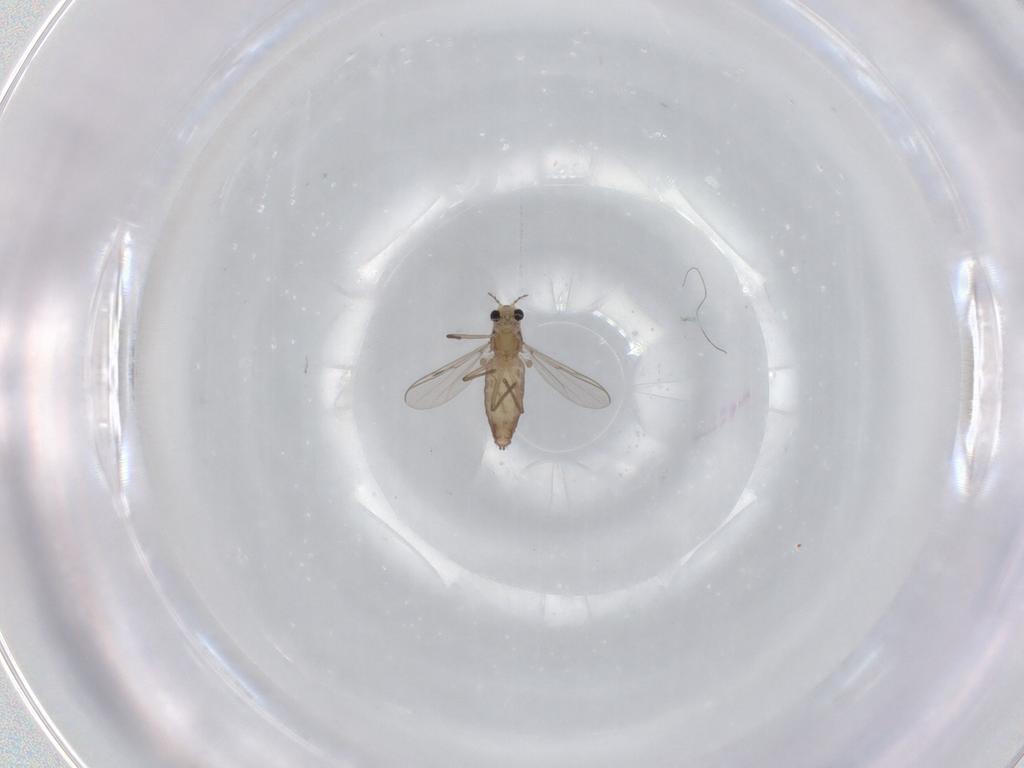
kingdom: Animalia
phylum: Arthropoda
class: Insecta
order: Diptera
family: Chironomidae
